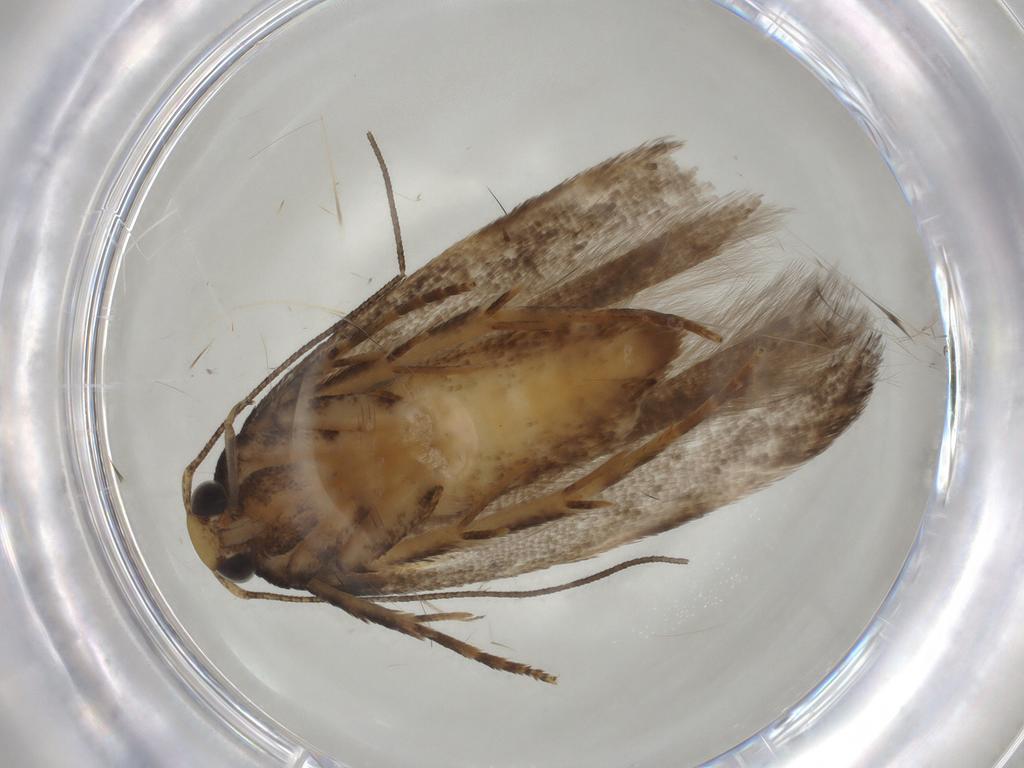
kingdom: Animalia
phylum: Arthropoda
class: Insecta
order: Lepidoptera
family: Gelechiidae
